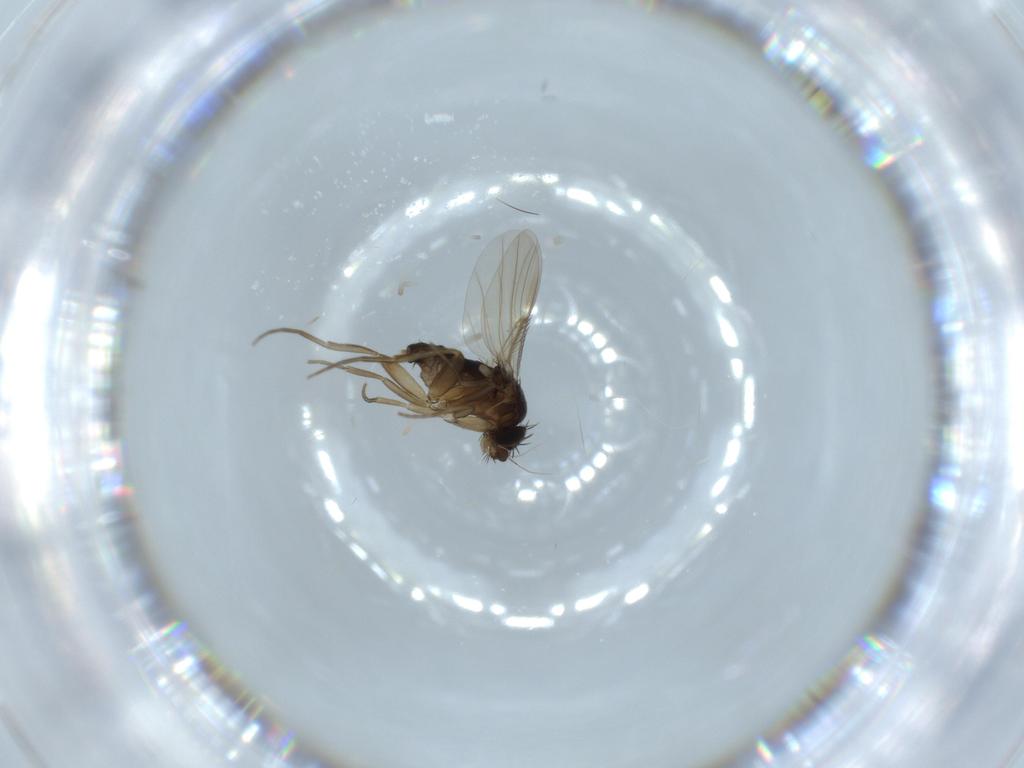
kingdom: Animalia
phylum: Arthropoda
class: Insecta
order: Diptera
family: Phoridae
